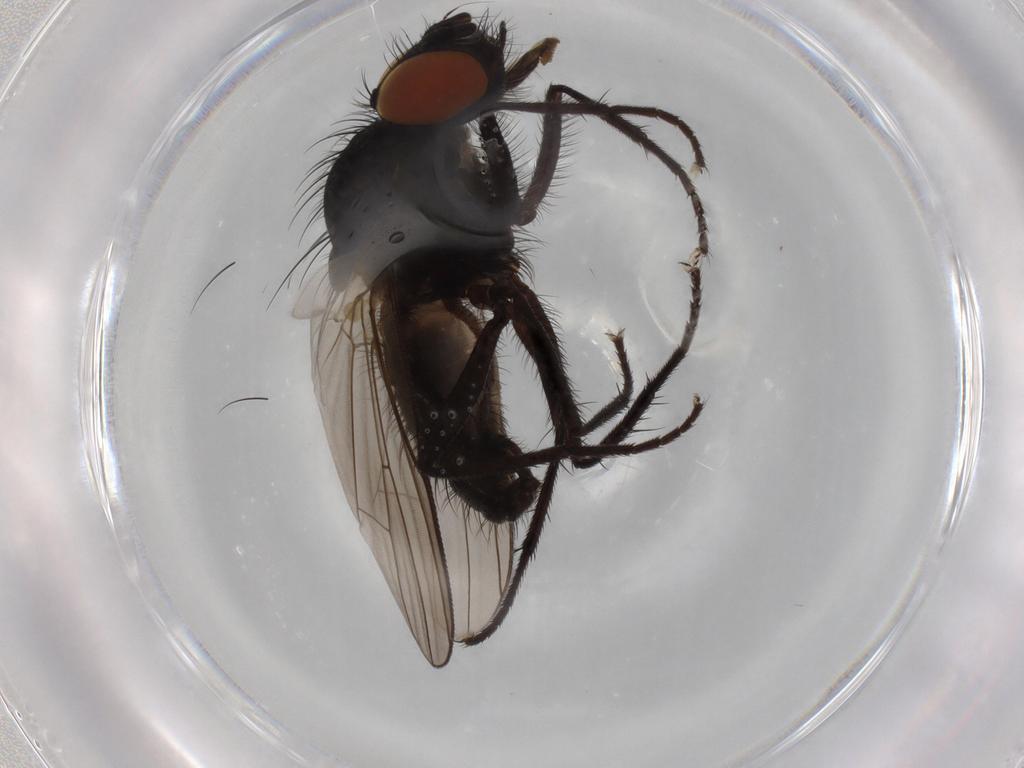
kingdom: Animalia
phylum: Arthropoda
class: Insecta
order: Diptera
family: Anthomyiidae
